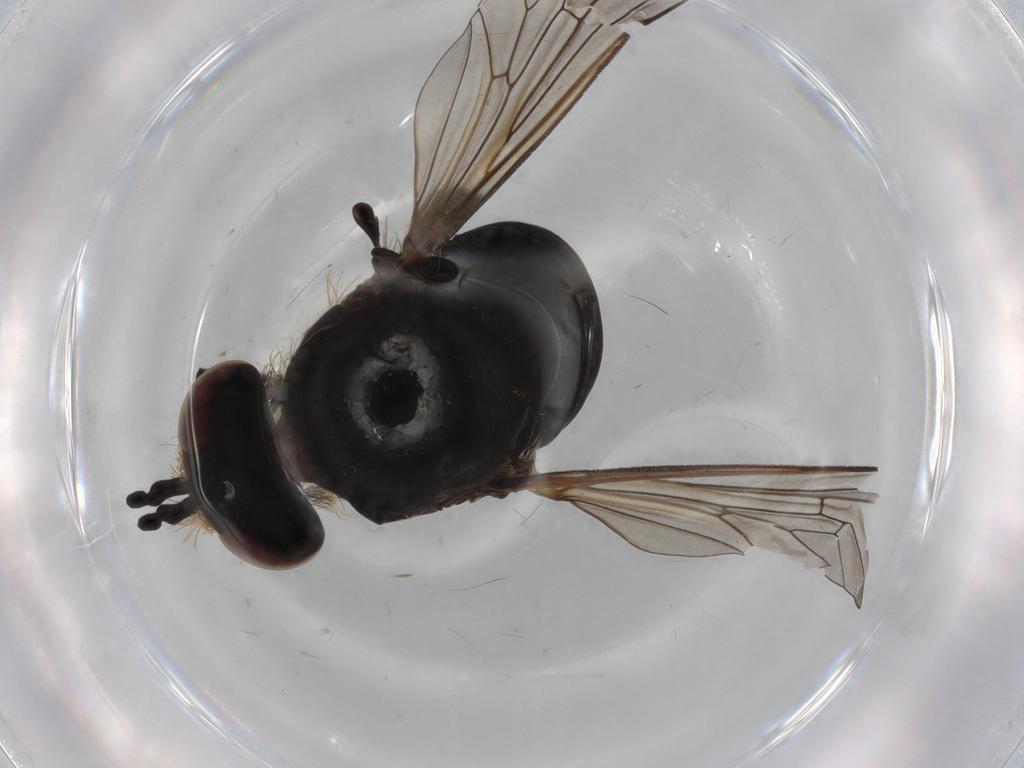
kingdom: Animalia
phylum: Arthropoda
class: Insecta
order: Diptera
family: Bombyliidae
